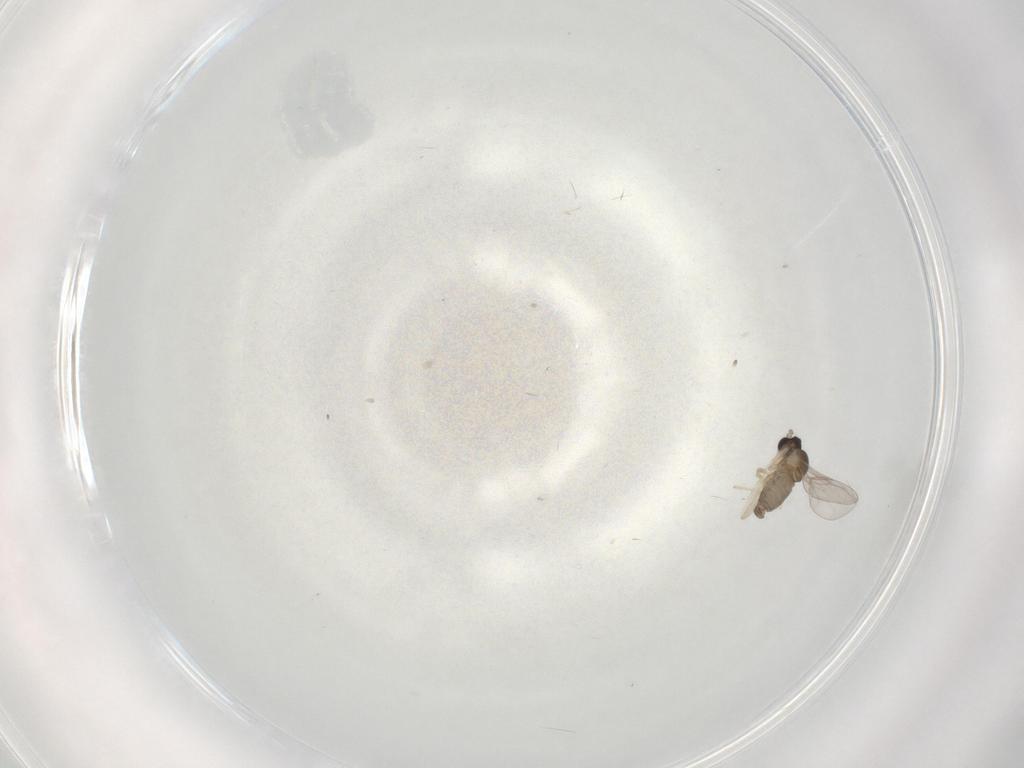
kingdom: Animalia
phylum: Arthropoda
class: Insecta
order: Diptera
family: Cecidomyiidae
